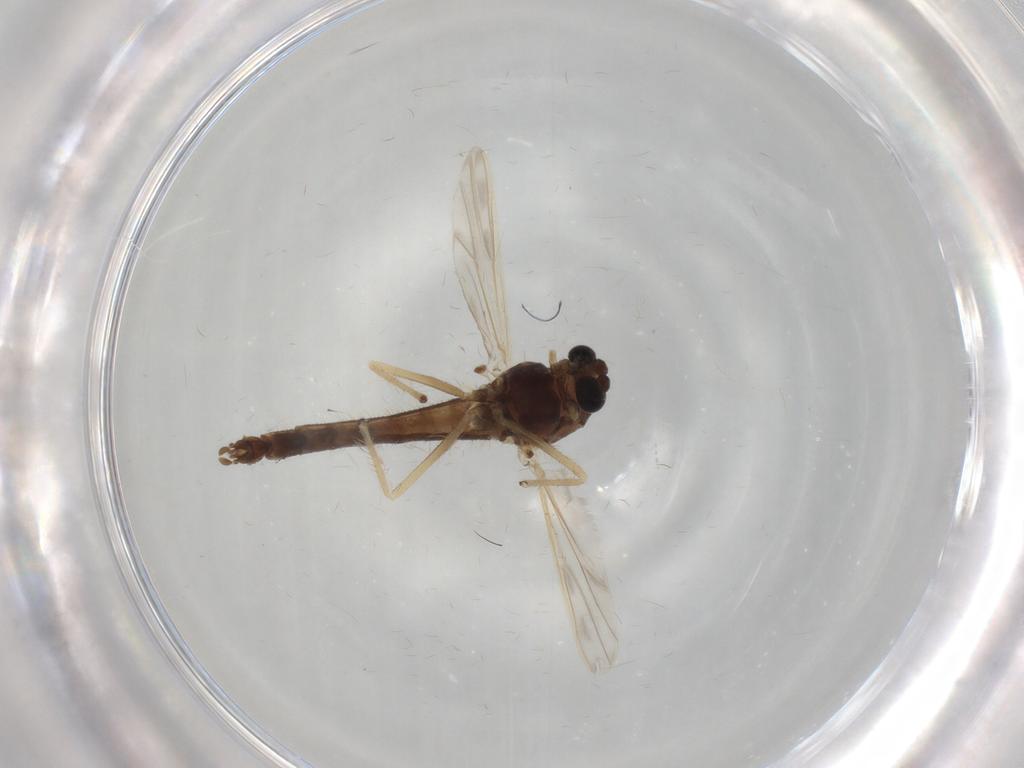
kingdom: Animalia
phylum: Arthropoda
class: Insecta
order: Diptera
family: Chironomidae
